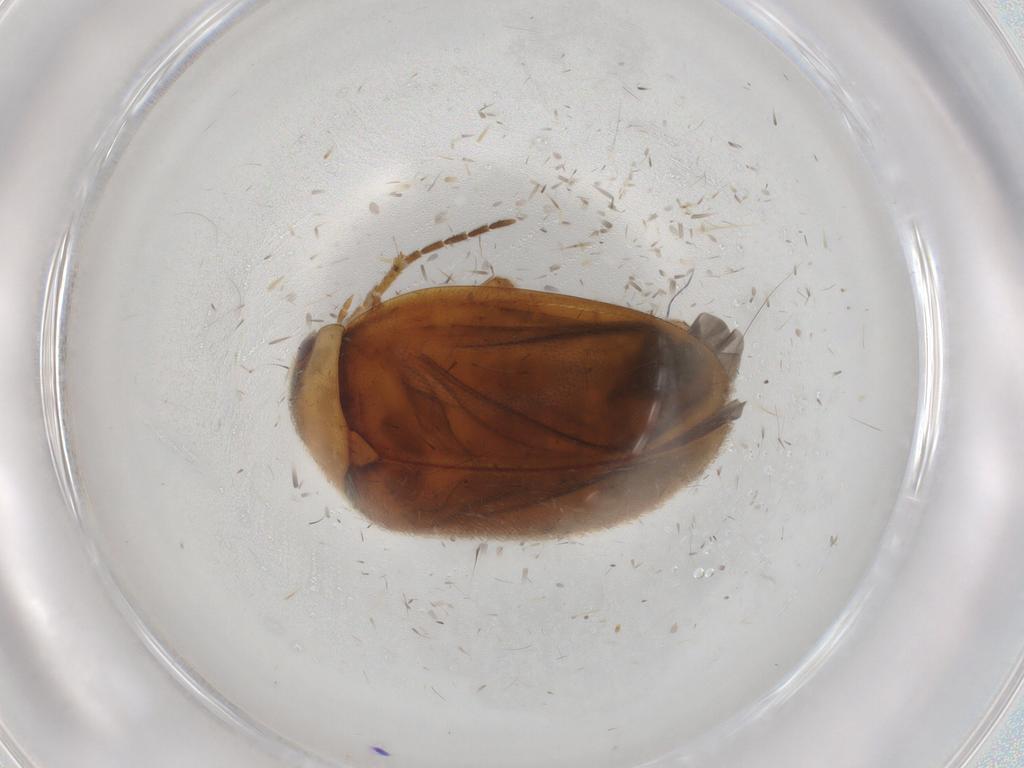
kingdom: Animalia
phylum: Arthropoda
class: Insecta
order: Coleoptera
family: Scirtidae
